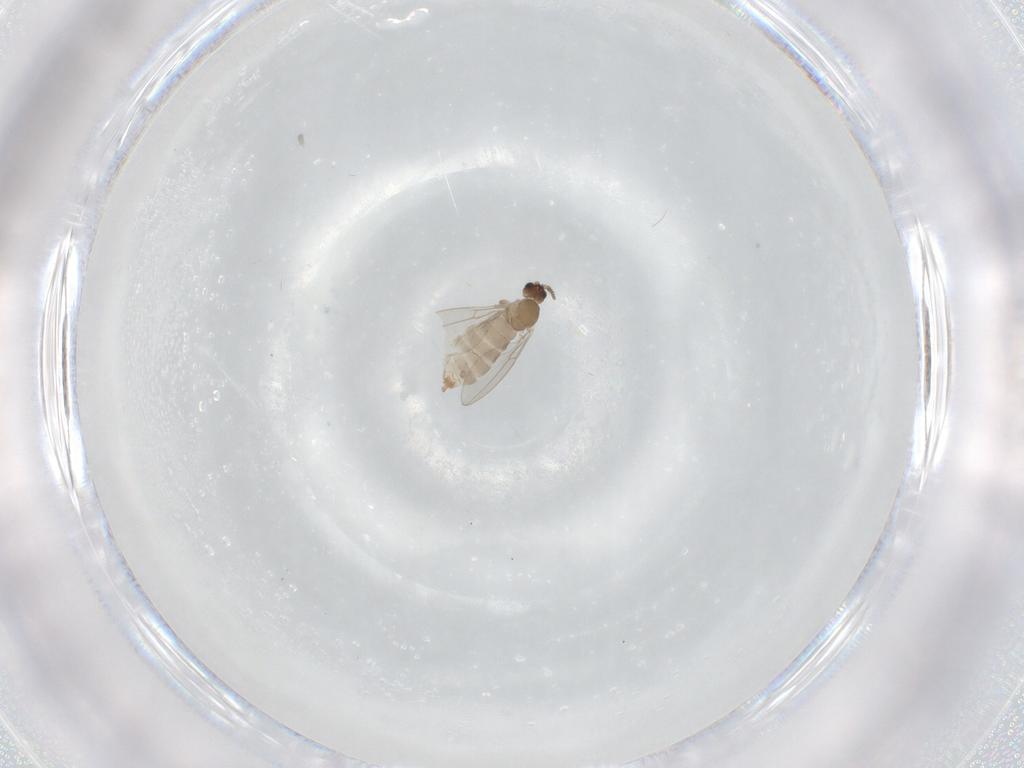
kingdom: Animalia
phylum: Arthropoda
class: Insecta
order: Diptera
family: Cecidomyiidae
